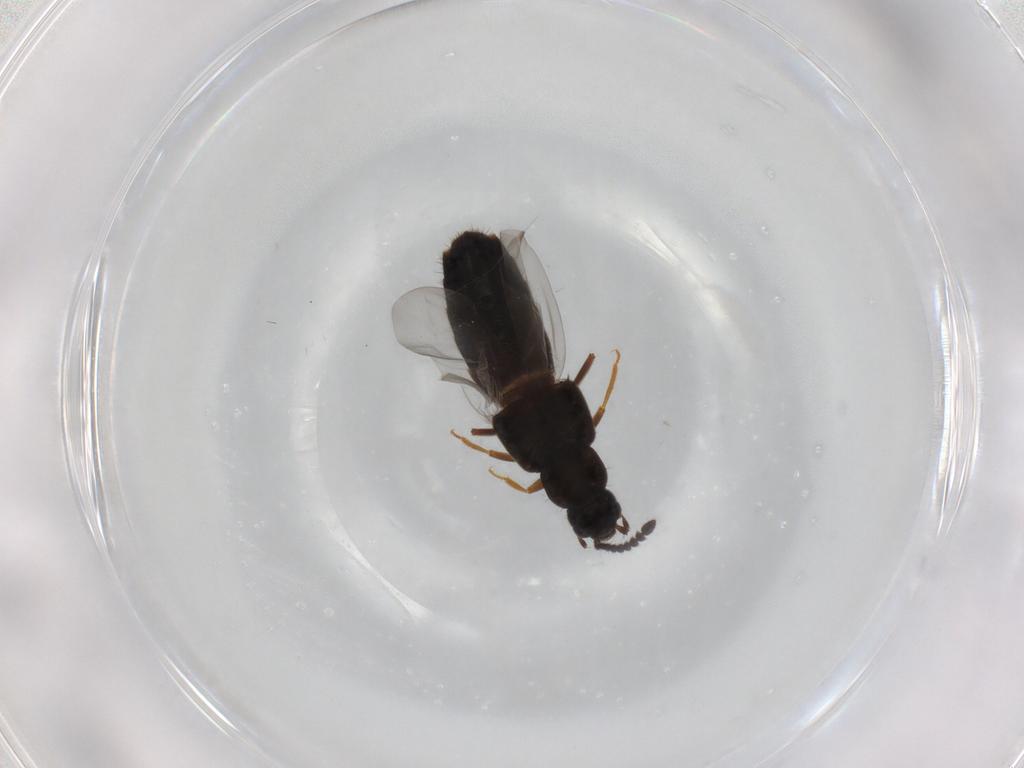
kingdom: Animalia
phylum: Arthropoda
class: Insecta
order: Coleoptera
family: Staphylinidae
